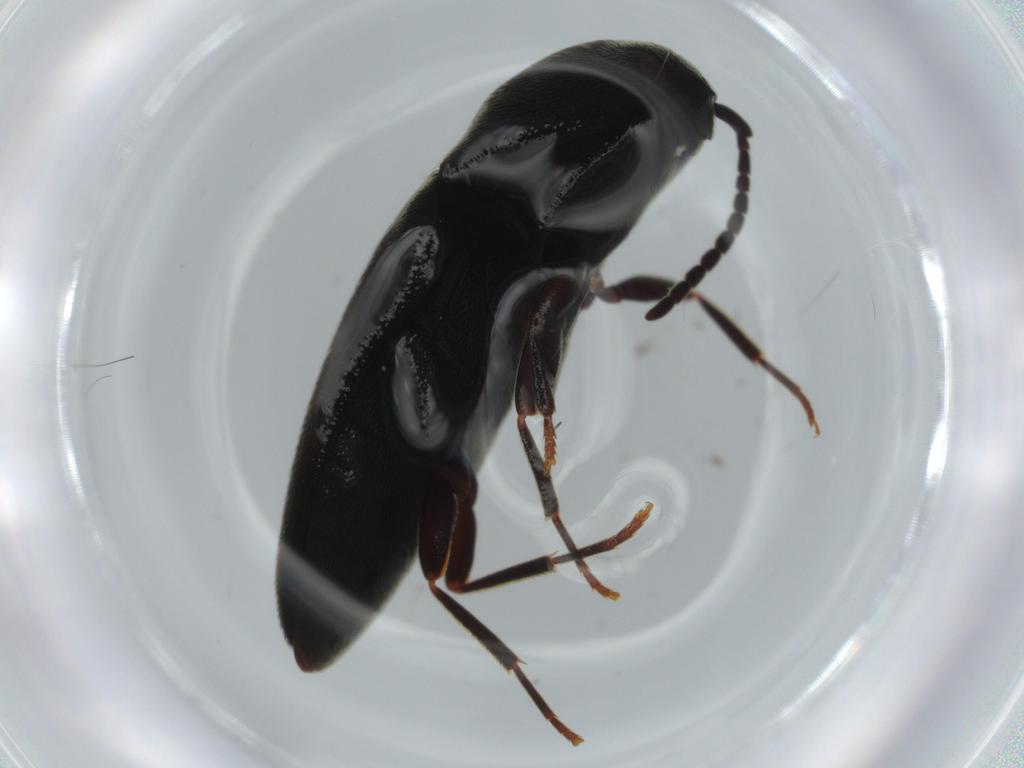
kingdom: Animalia
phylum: Arthropoda
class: Insecta
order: Coleoptera
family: Eucnemidae
